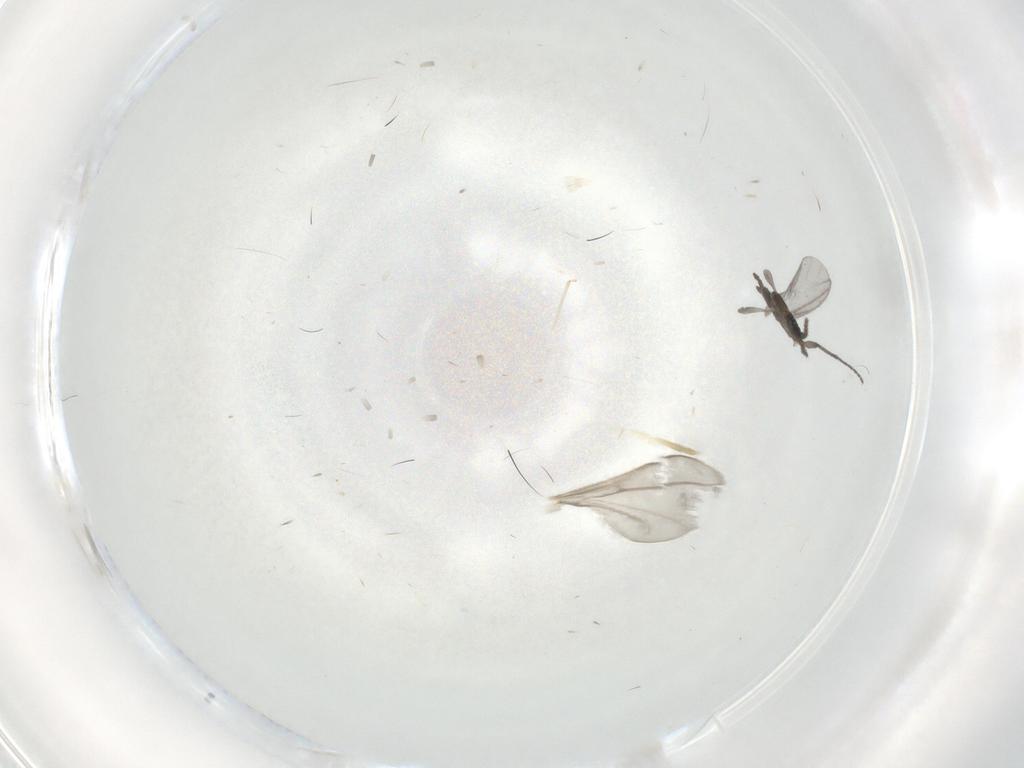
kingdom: Animalia
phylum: Arthropoda
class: Insecta
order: Diptera
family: Sciaridae
